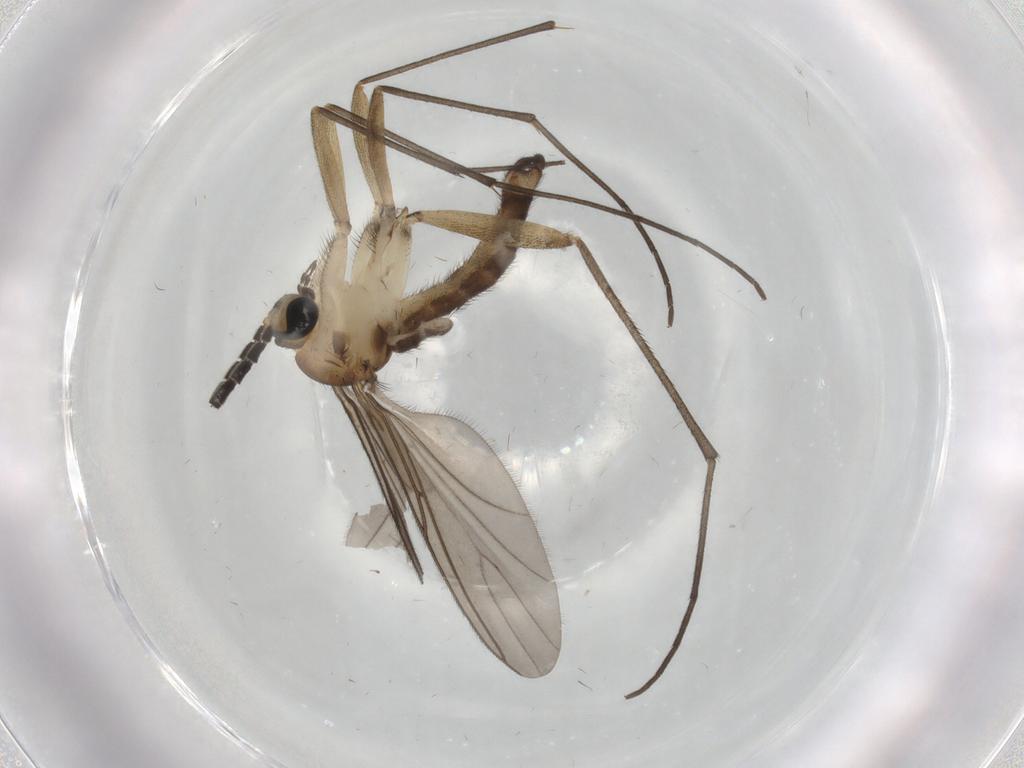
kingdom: Animalia
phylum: Arthropoda
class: Insecta
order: Diptera
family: Sciaridae
